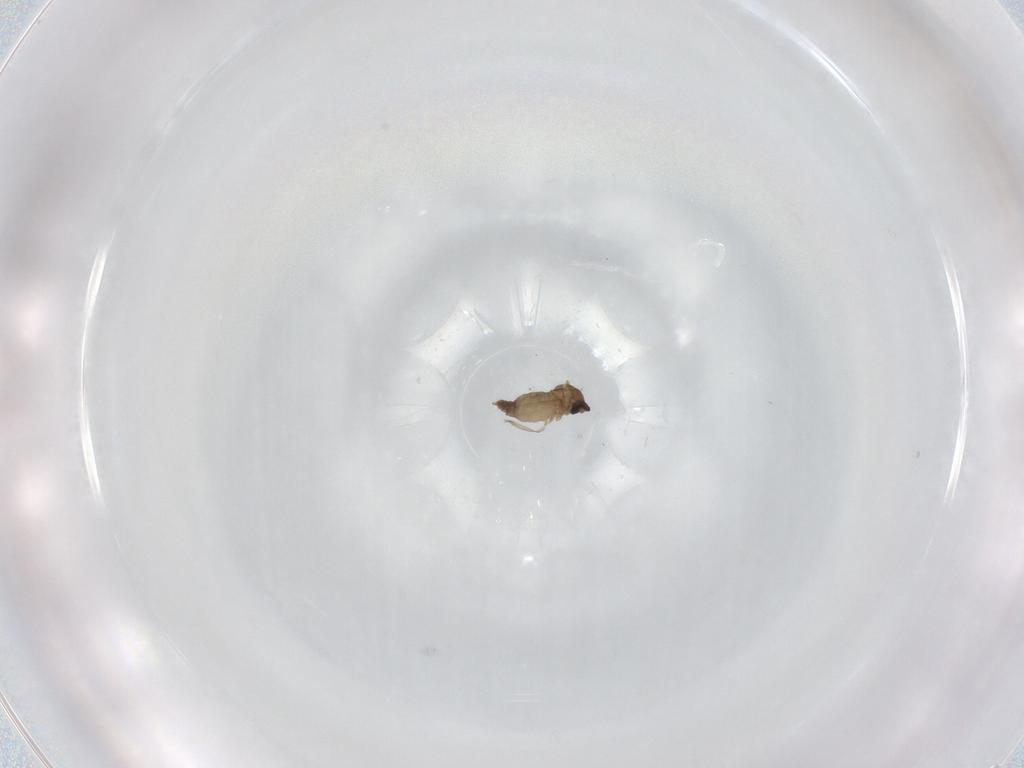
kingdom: Animalia
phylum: Arthropoda
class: Insecta
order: Diptera
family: Cecidomyiidae
